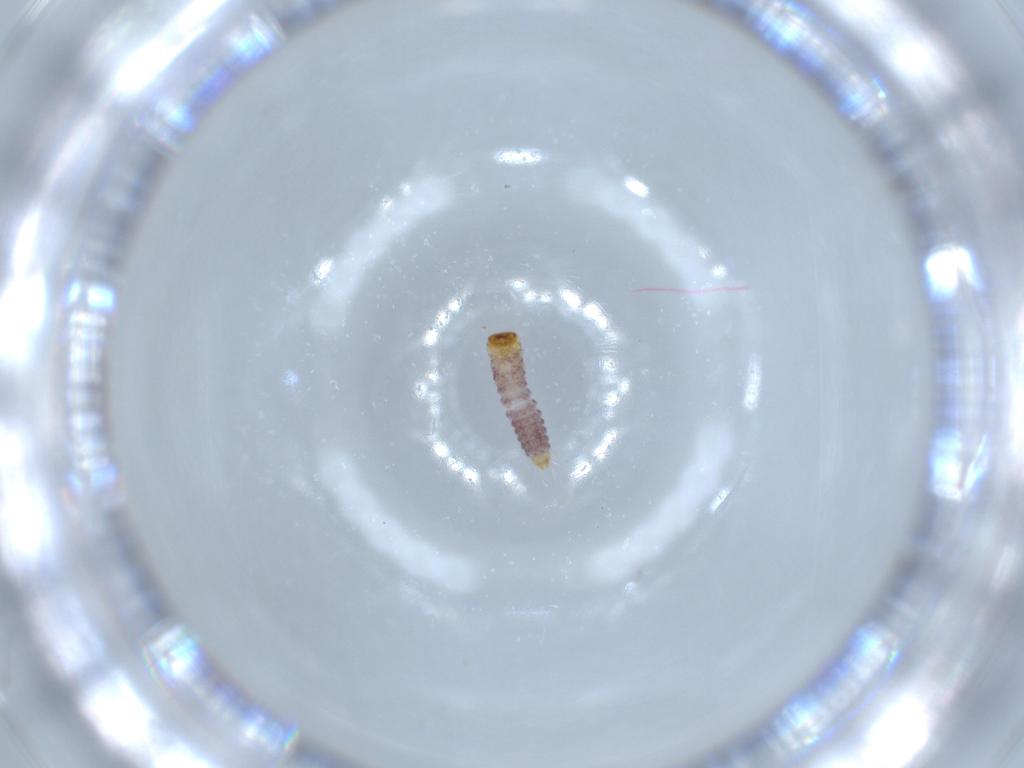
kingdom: Animalia
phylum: Arthropoda
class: Insecta
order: Coleoptera
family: Cleridae
